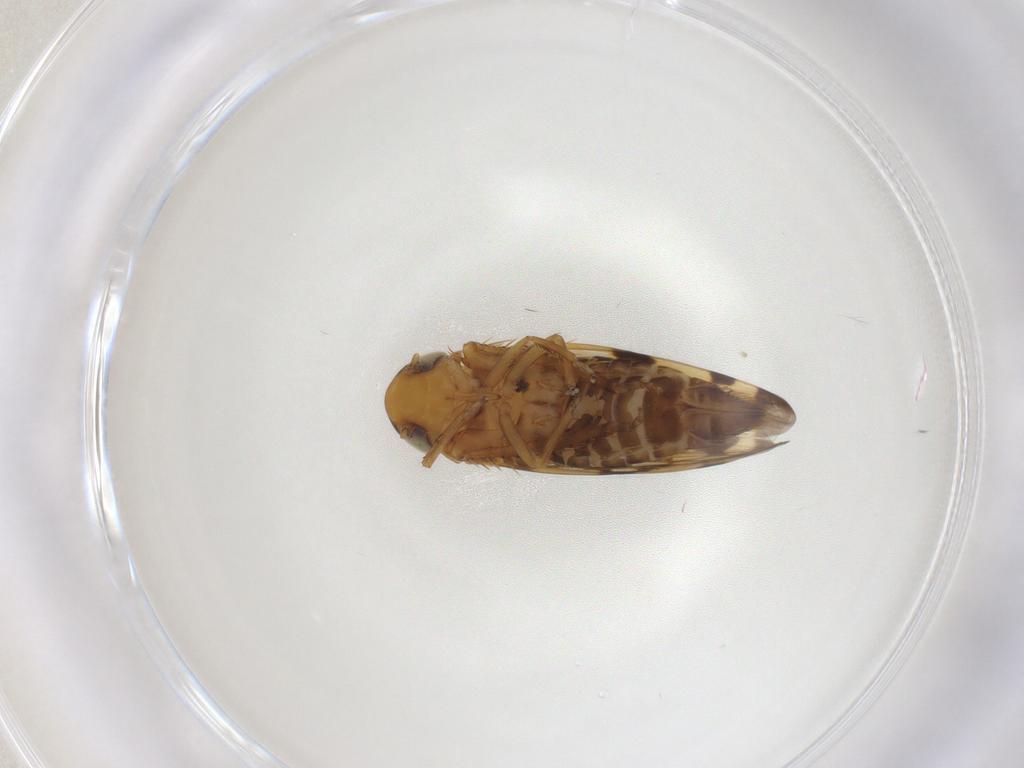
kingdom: Animalia
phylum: Arthropoda
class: Insecta
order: Hemiptera
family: Cicadellidae
